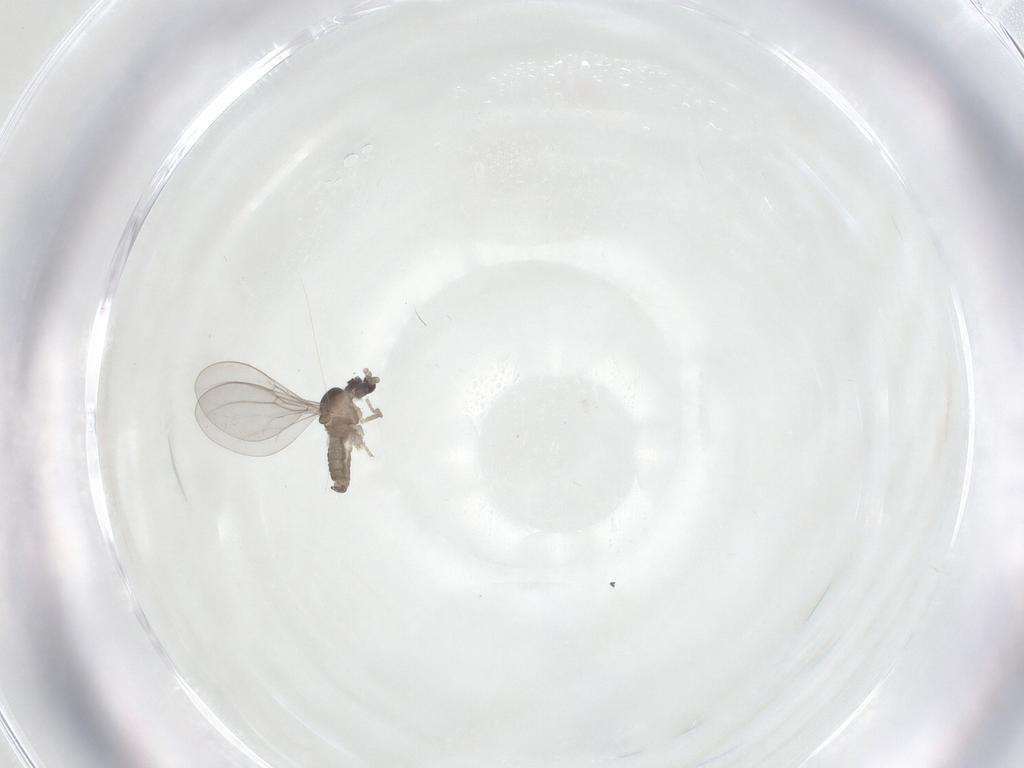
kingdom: Animalia
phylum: Arthropoda
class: Insecta
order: Diptera
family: Cecidomyiidae
